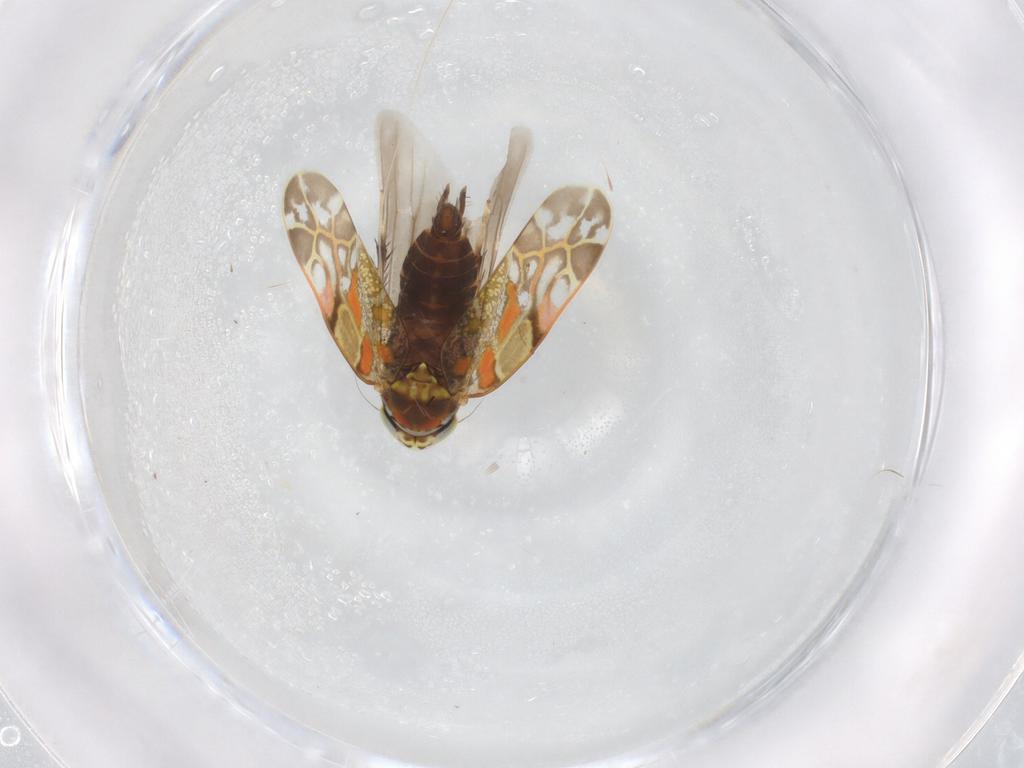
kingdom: Animalia
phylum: Arthropoda
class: Insecta
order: Hemiptera
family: Cicadellidae
